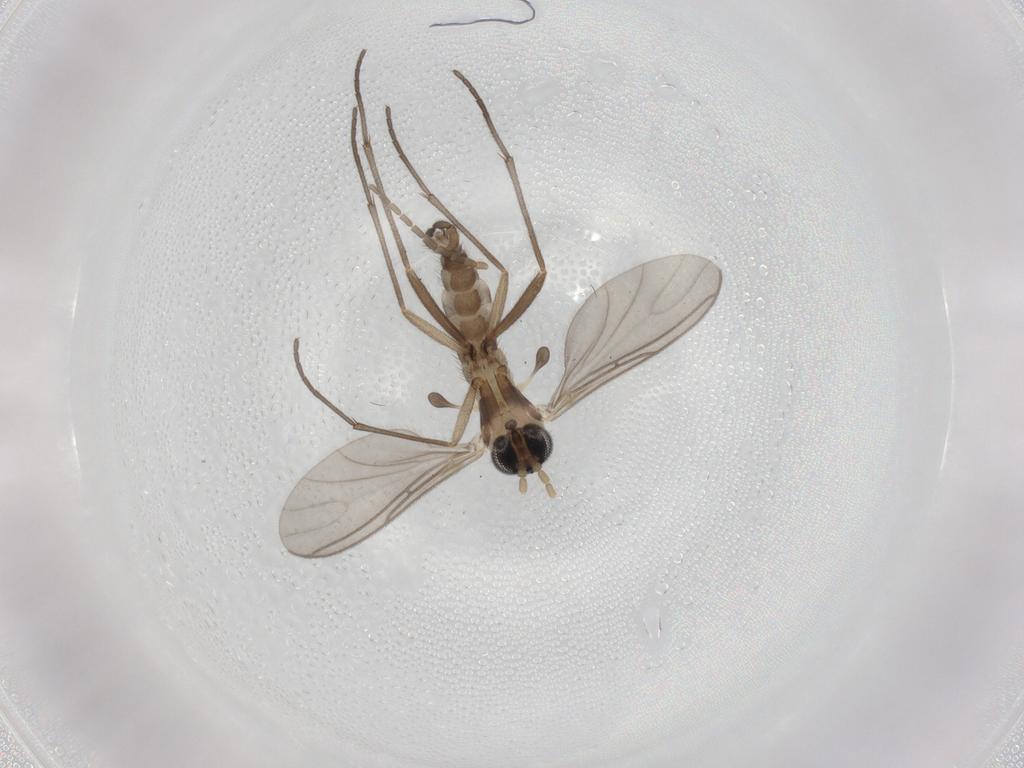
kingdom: Animalia
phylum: Arthropoda
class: Insecta
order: Diptera
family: Sciaridae
